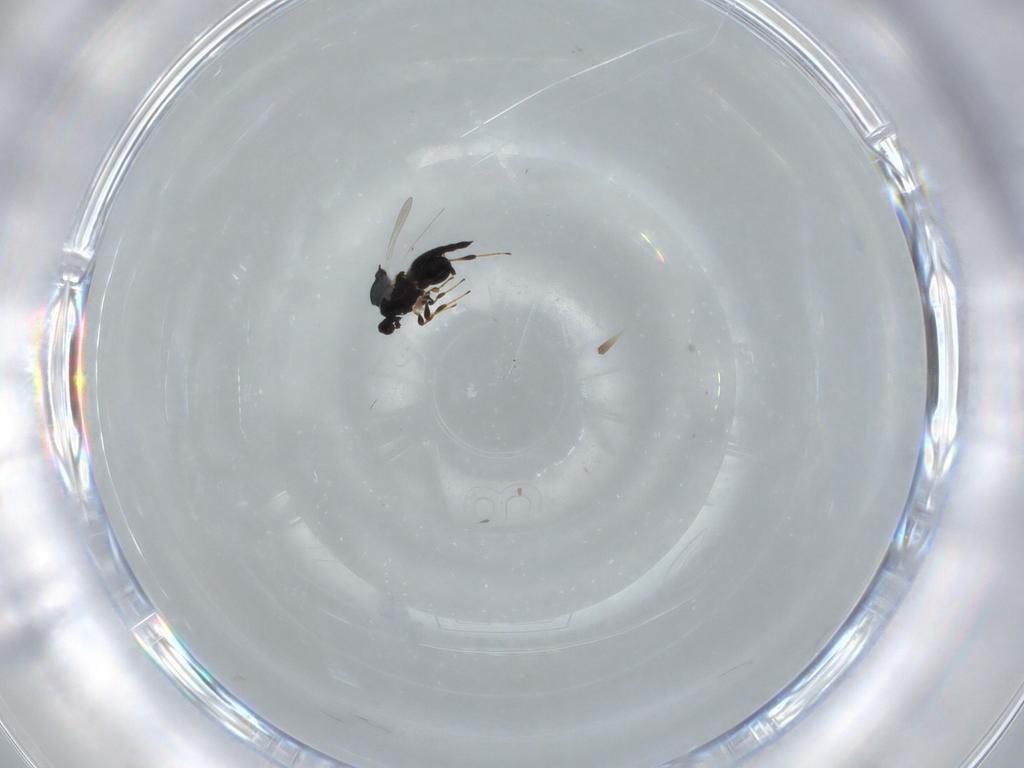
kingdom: Animalia
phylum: Arthropoda
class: Insecta
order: Hymenoptera
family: Platygastridae
